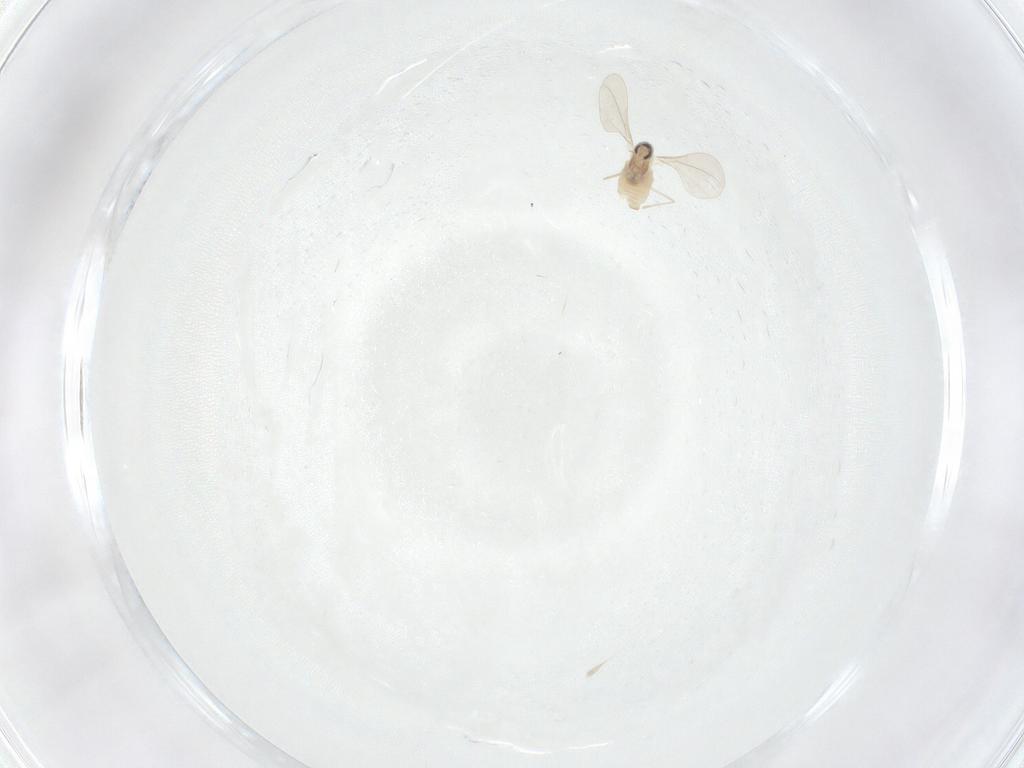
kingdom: Animalia
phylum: Arthropoda
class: Insecta
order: Diptera
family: Cecidomyiidae
